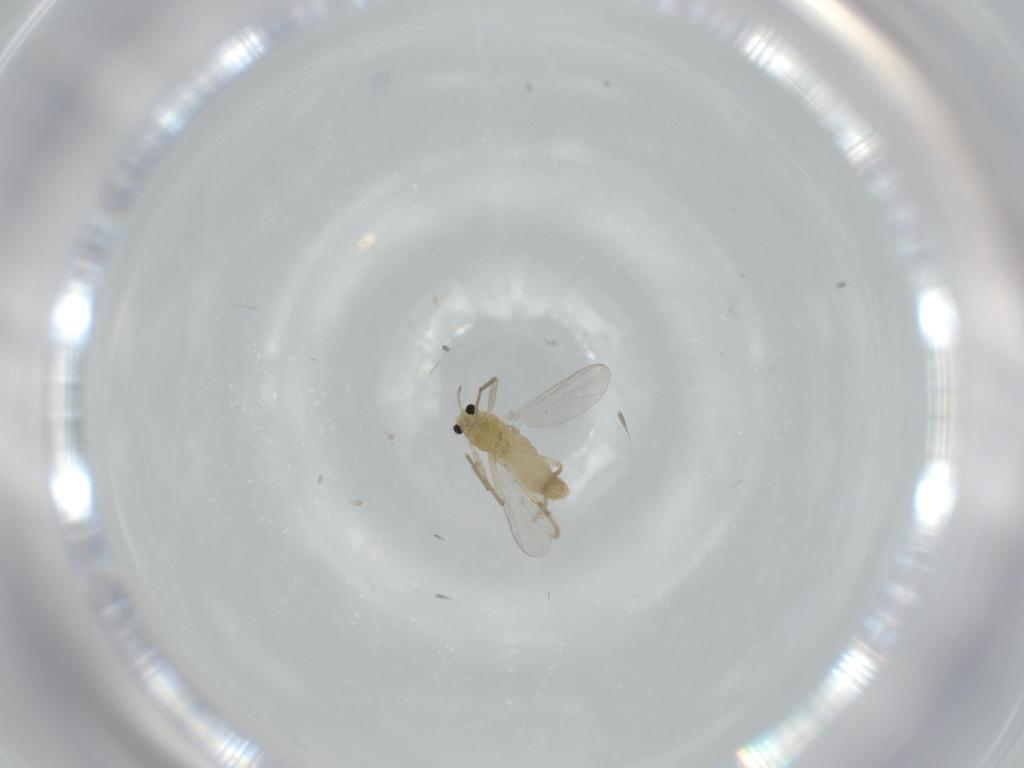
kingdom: Animalia
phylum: Arthropoda
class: Insecta
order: Diptera
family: Chironomidae
